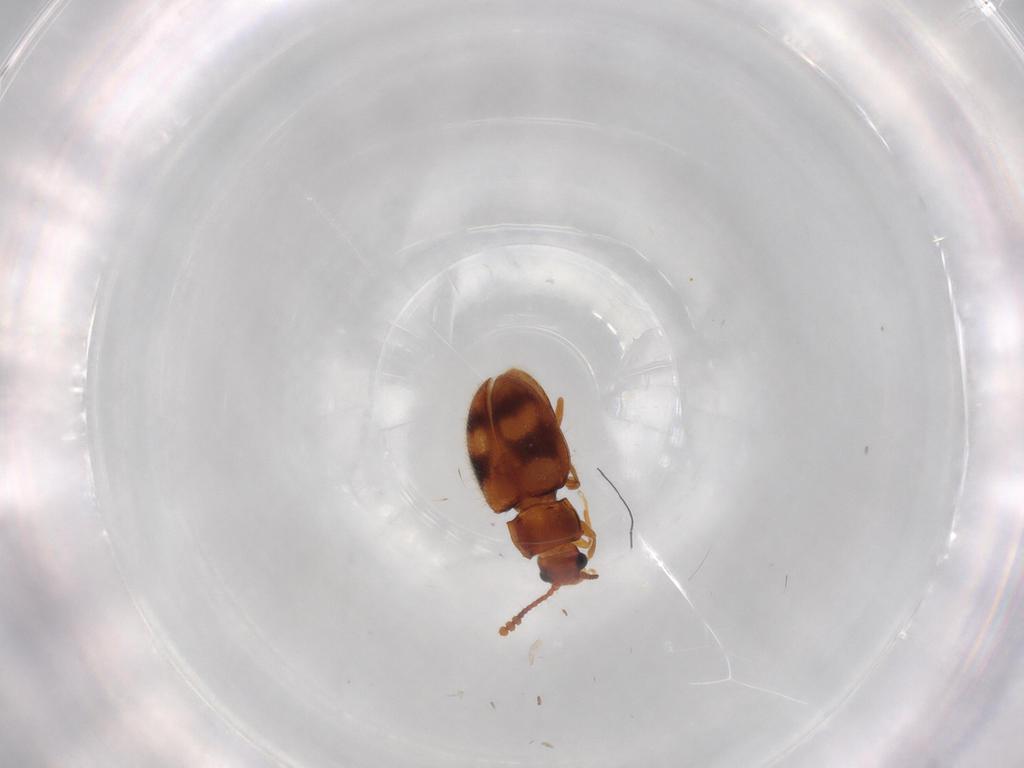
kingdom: Animalia
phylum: Arthropoda
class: Insecta
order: Coleoptera
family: Erotylidae
